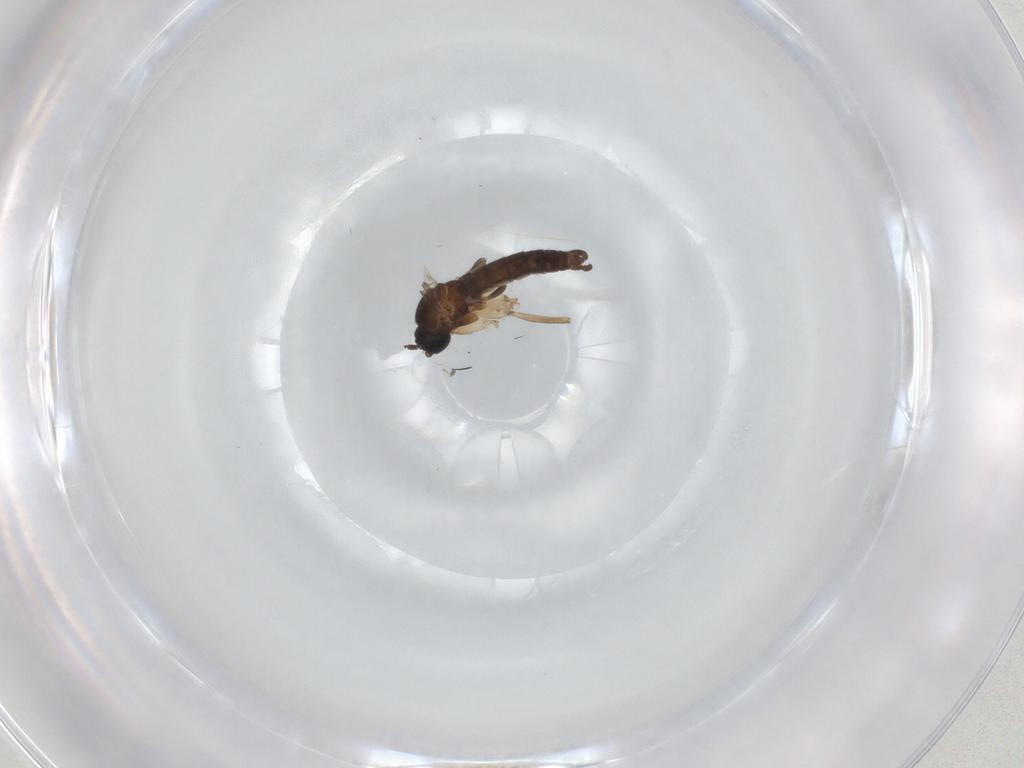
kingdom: Animalia
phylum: Arthropoda
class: Insecta
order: Diptera
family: Sciaridae
